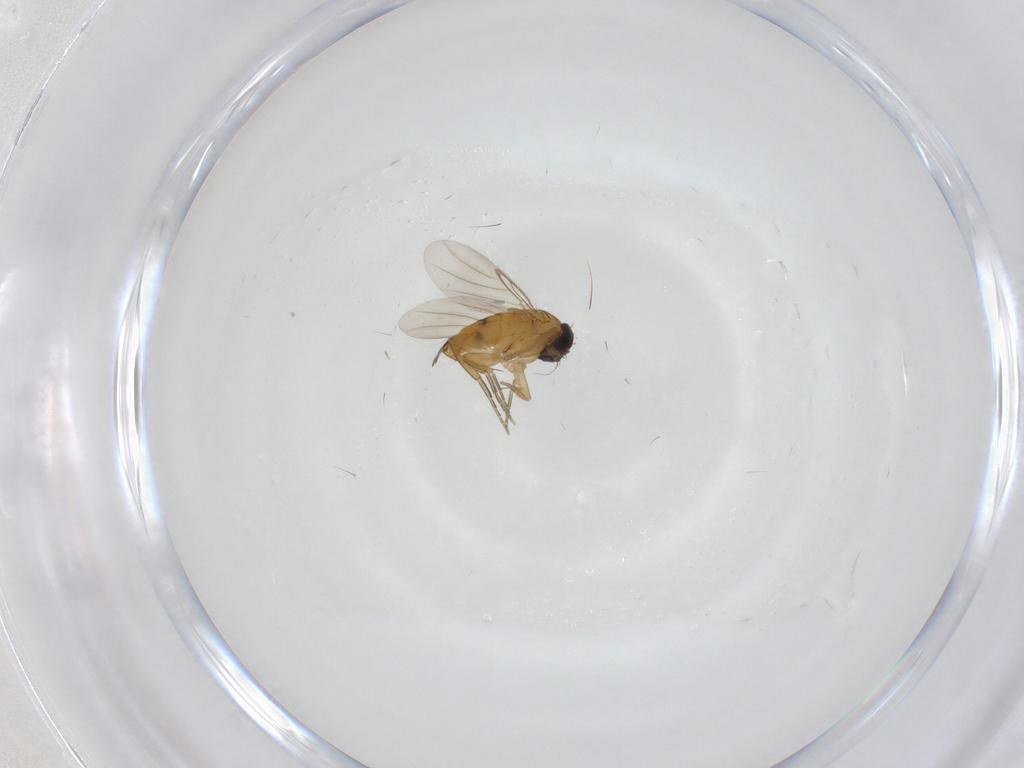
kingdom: Animalia
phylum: Arthropoda
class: Insecta
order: Diptera
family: Phoridae
